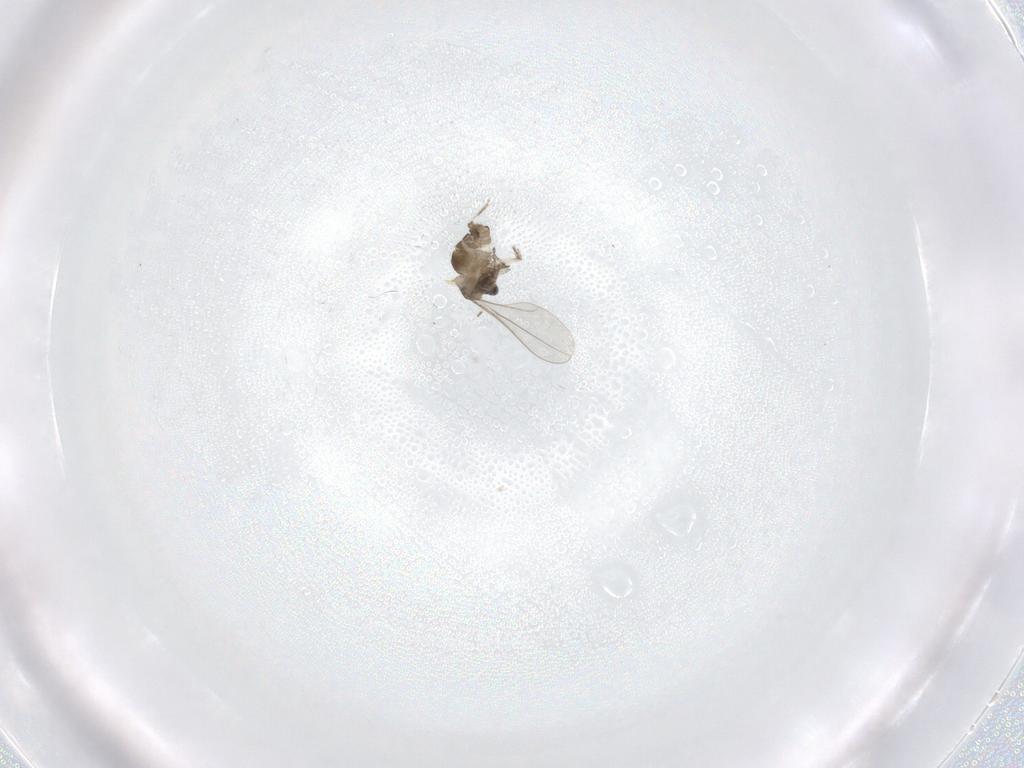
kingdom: Animalia
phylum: Arthropoda
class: Insecta
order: Diptera
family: Cecidomyiidae
